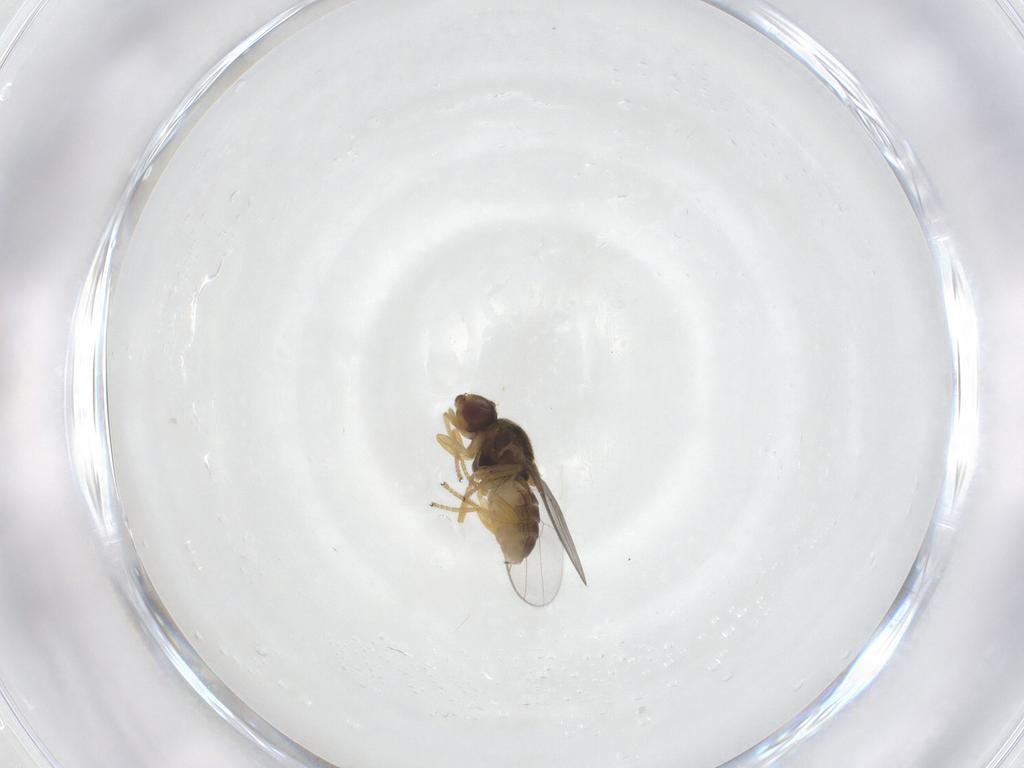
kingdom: Animalia
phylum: Arthropoda
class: Insecta
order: Diptera
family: Chloropidae
